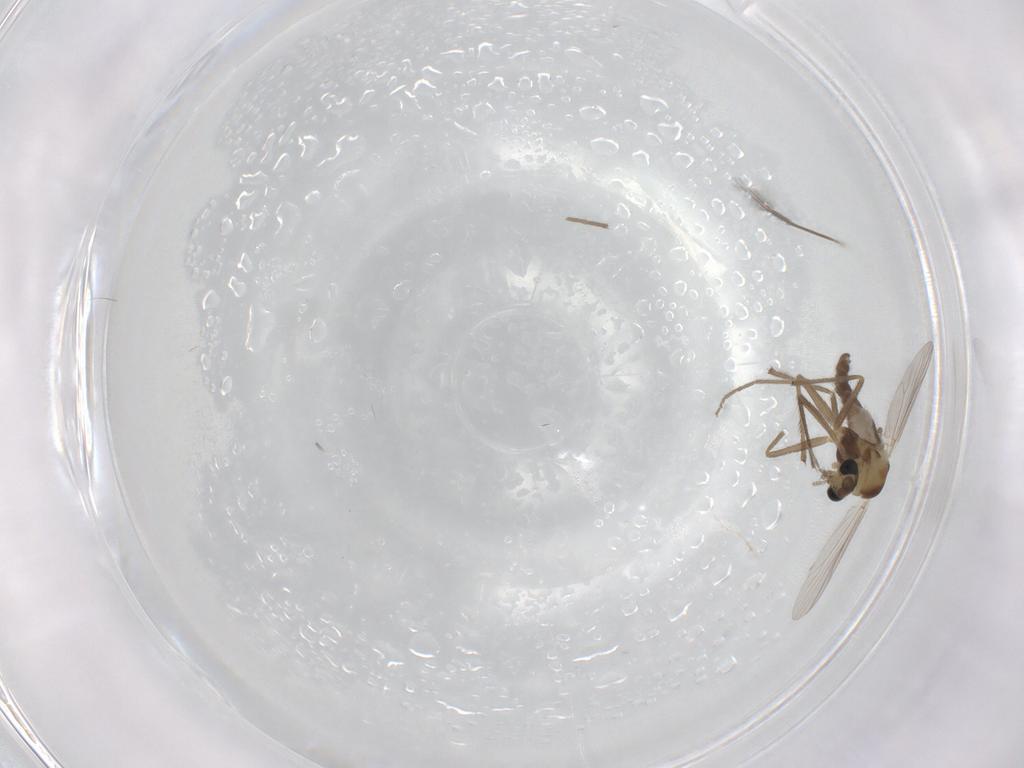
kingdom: Animalia
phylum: Arthropoda
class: Insecta
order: Diptera
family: Chironomidae
